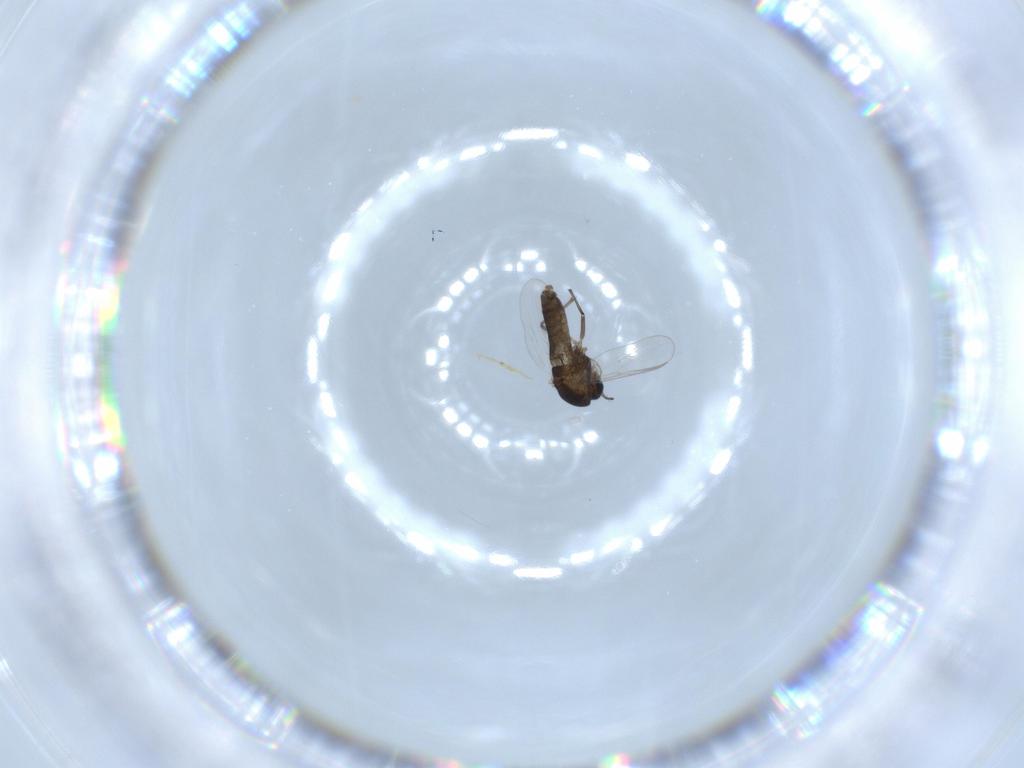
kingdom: Animalia
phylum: Arthropoda
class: Insecta
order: Diptera
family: Chironomidae
